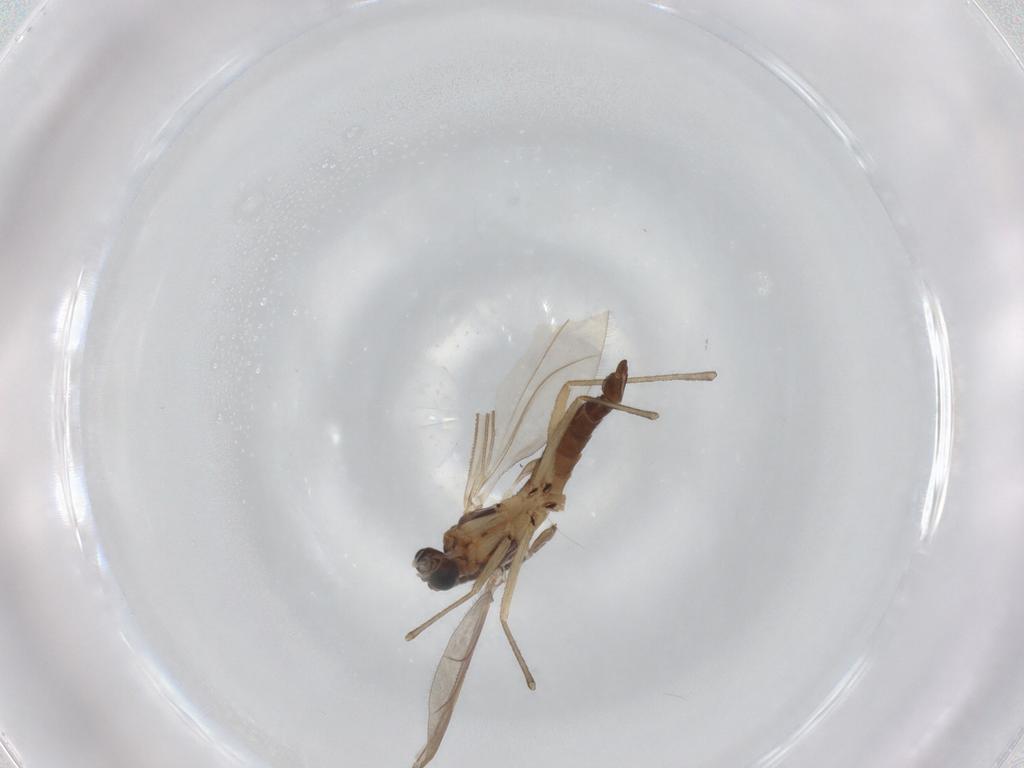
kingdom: Animalia
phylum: Arthropoda
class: Insecta
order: Diptera
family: Sciaridae
